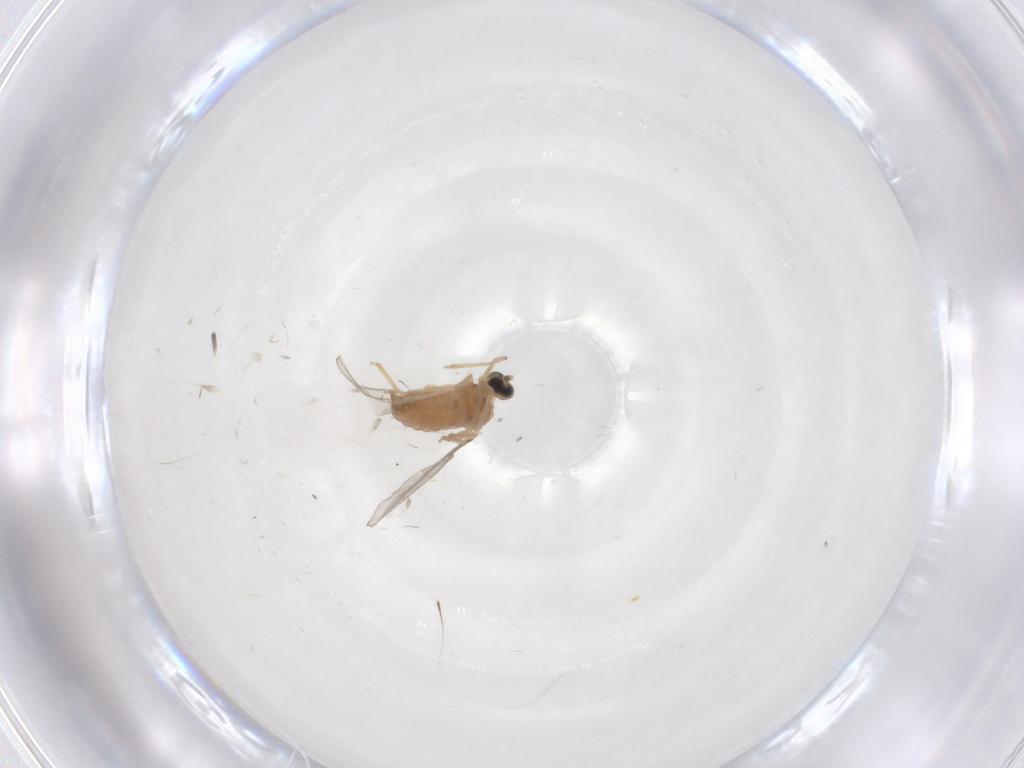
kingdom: Animalia
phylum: Arthropoda
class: Insecta
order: Diptera
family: Cecidomyiidae
